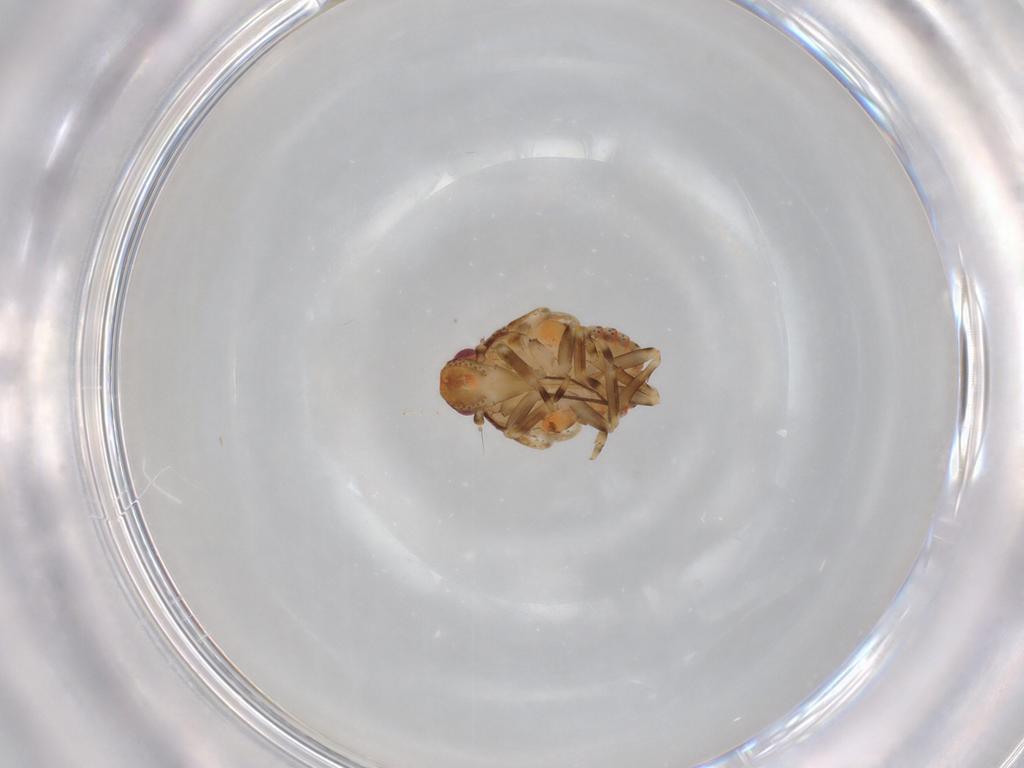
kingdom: Animalia
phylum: Arthropoda
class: Insecta
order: Hemiptera
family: Flatidae
